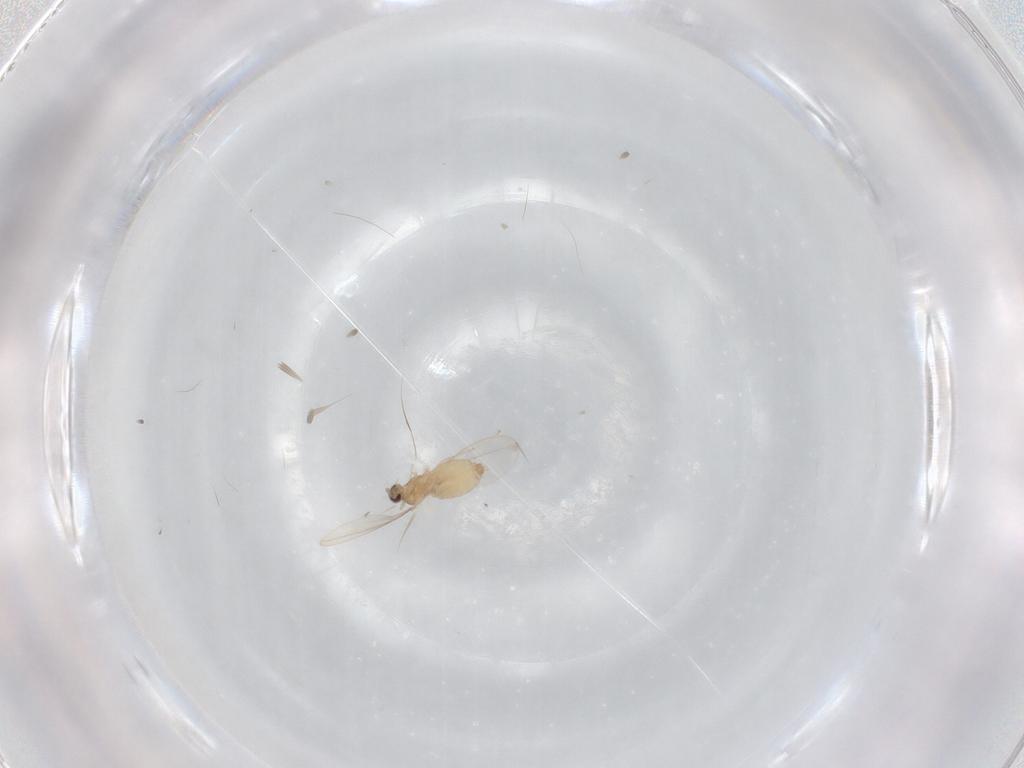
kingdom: Animalia
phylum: Arthropoda
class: Insecta
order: Diptera
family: Cecidomyiidae
